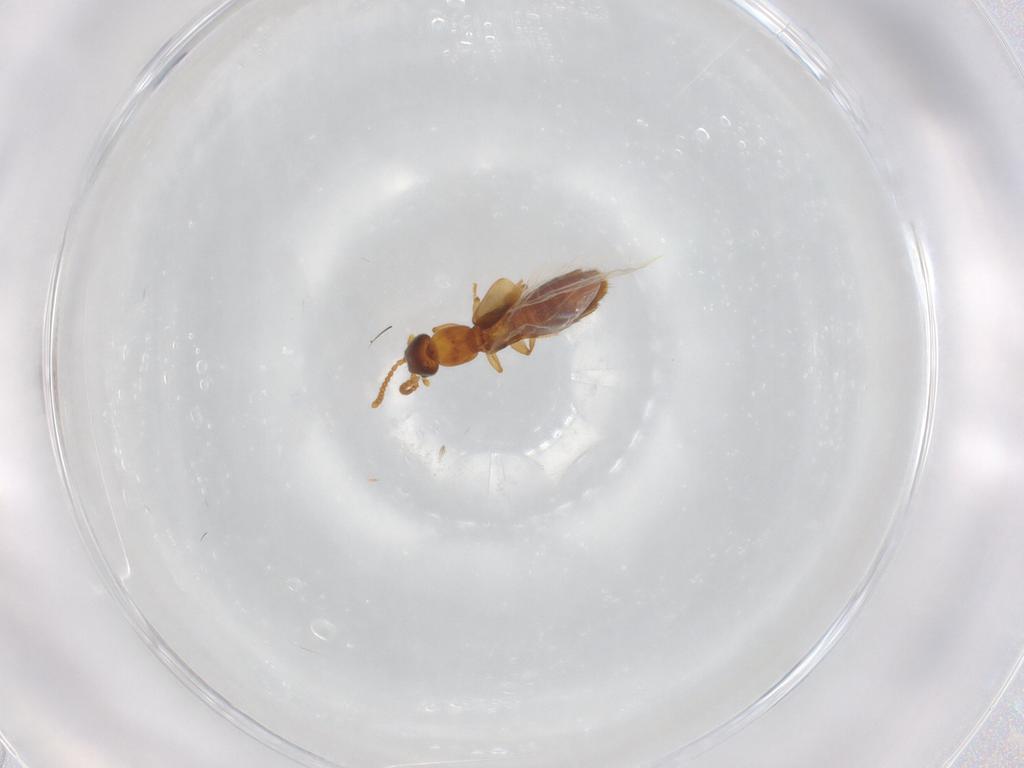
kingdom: Animalia
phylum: Arthropoda
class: Insecta
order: Coleoptera
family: Staphylinidae
